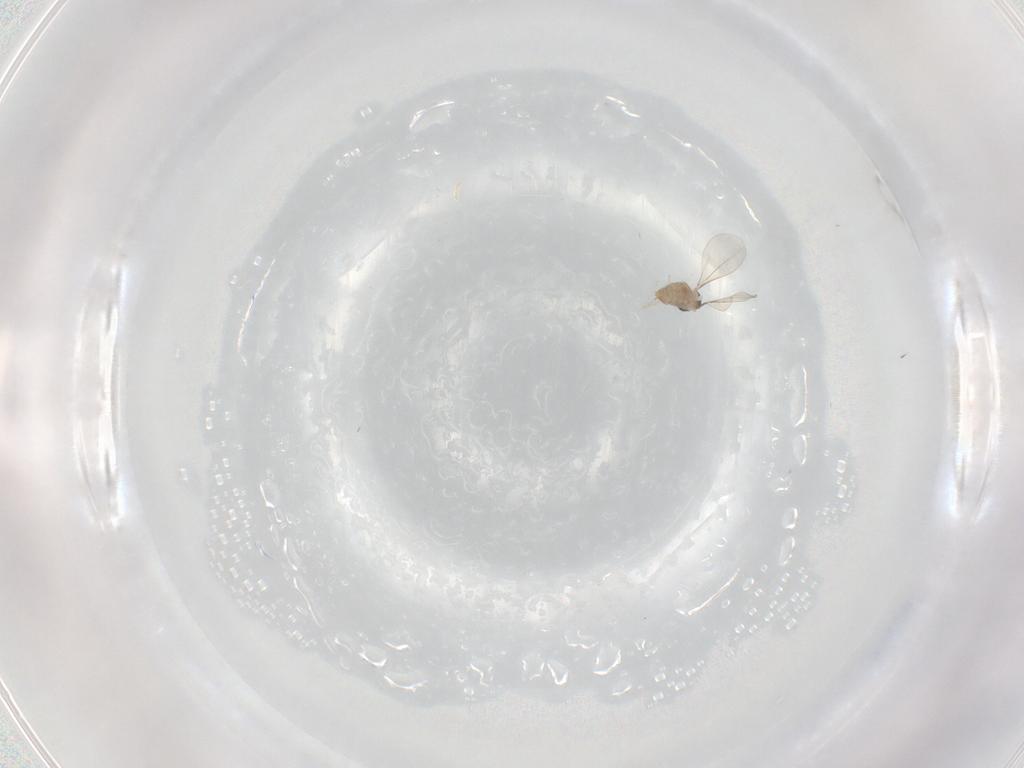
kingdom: Animalia
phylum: Arthropoda
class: Insecta
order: Diptera
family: Cecidomyiidae
